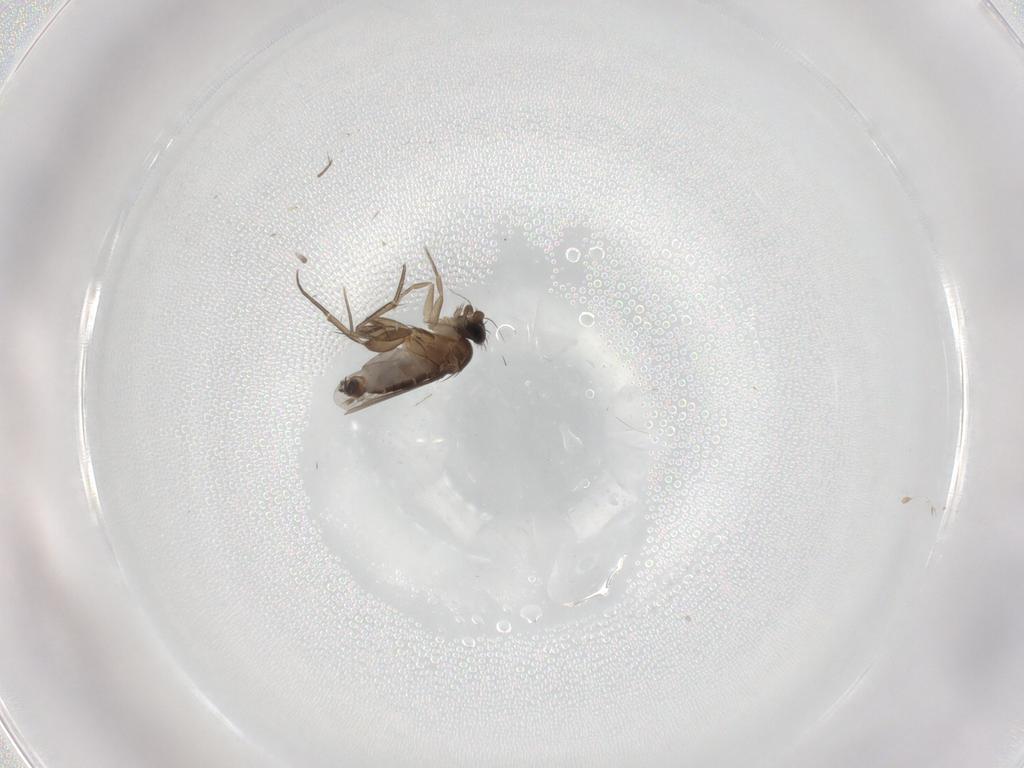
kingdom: Animalia
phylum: Arthropoda
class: Insecta
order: Diptera
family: Phoridae
